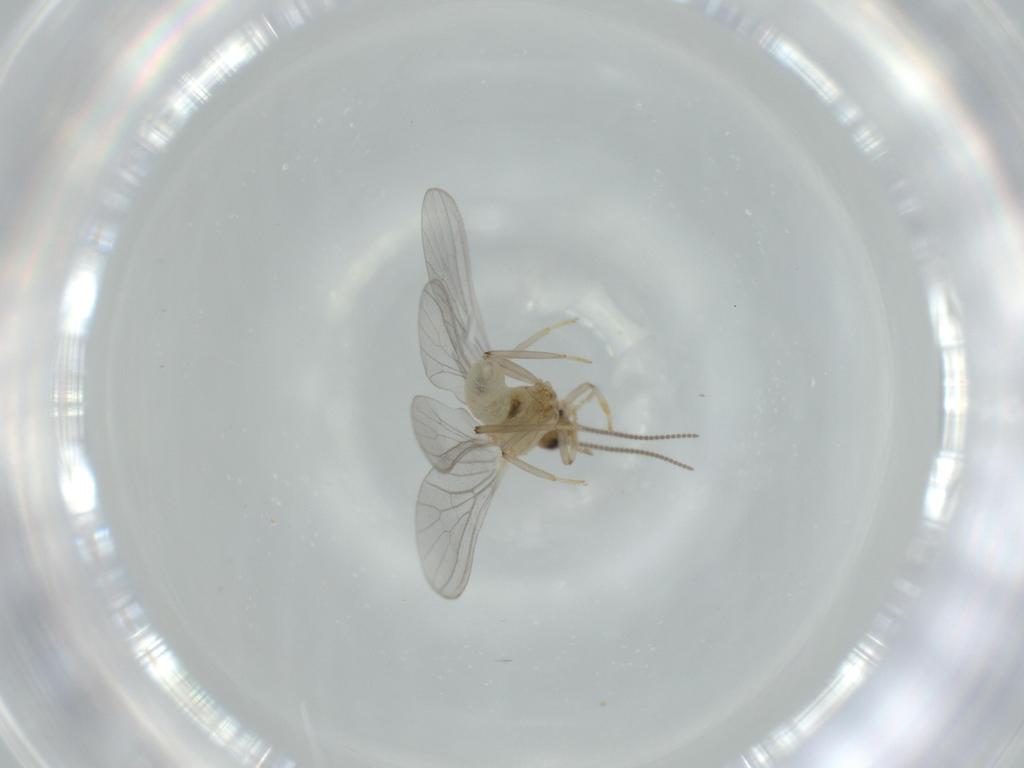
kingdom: Animalia
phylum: Arthropoda
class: Insecta
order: Neuroptera
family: Coniopterygidae
